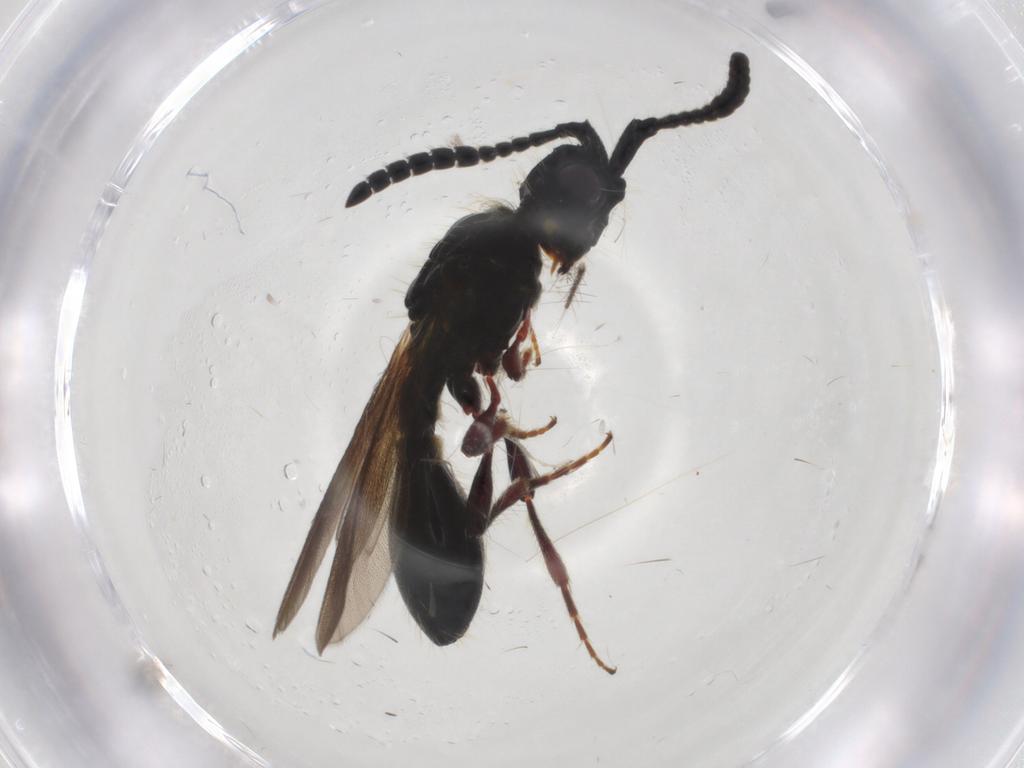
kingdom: Animalia
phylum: Arthropoda
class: Insecta
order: Hymenoptera
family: Diapriidae
